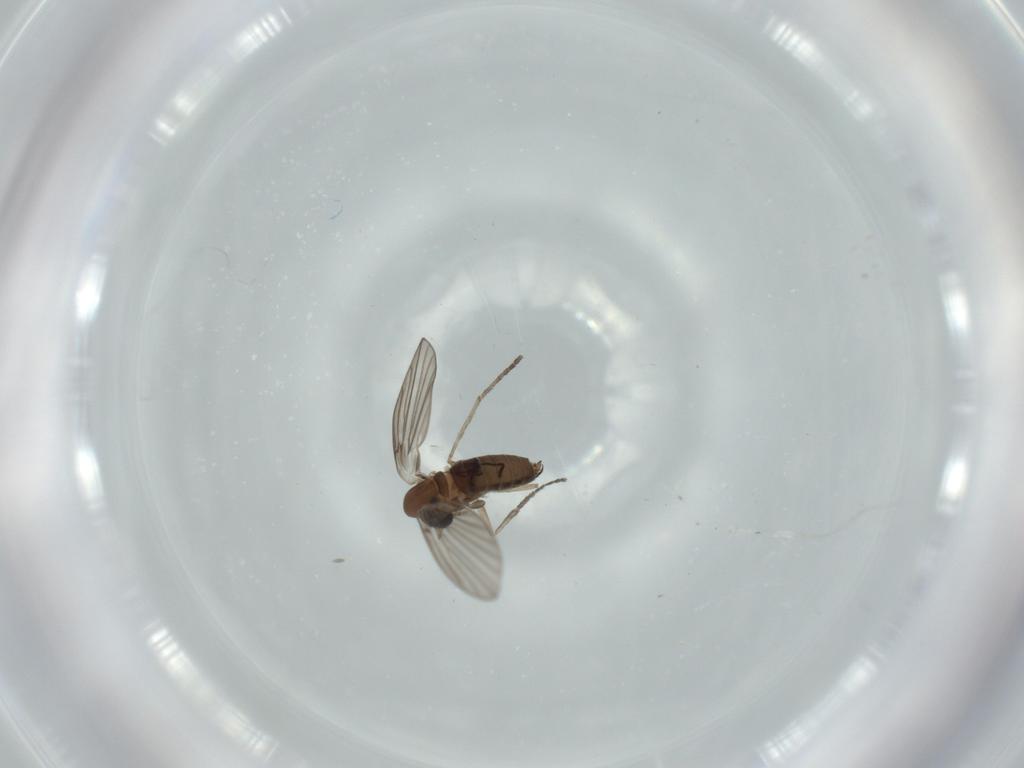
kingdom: Animalia
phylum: Arthropoda
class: Insecta
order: Diptera
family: Psychodidae
